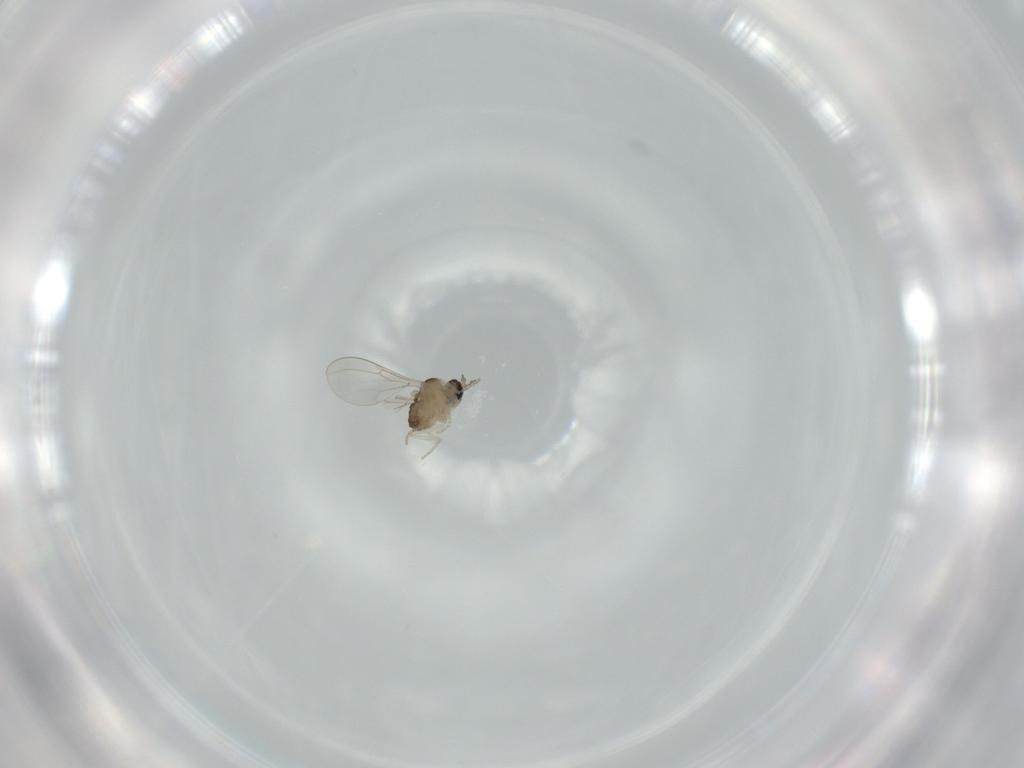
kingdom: Animalia
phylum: Arthropoda
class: Insecta
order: Diptera
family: Cecidomyiidae
